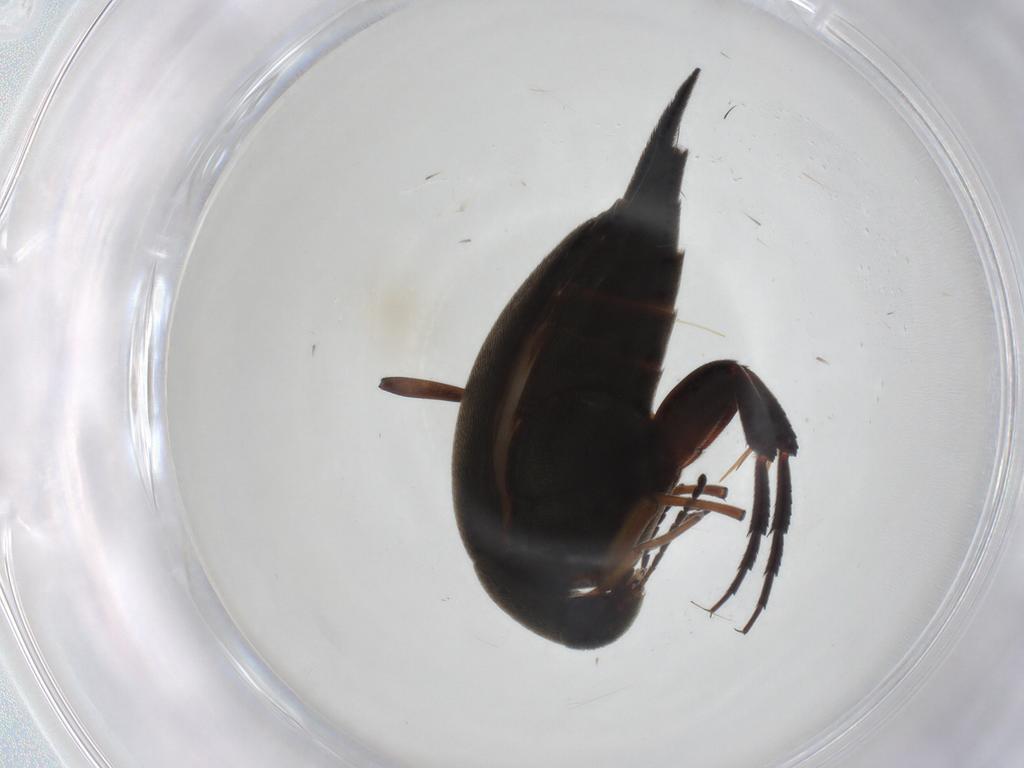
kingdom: Animalia
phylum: Arthropoda
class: Insecta
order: Coleoptera
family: Mordellidae
